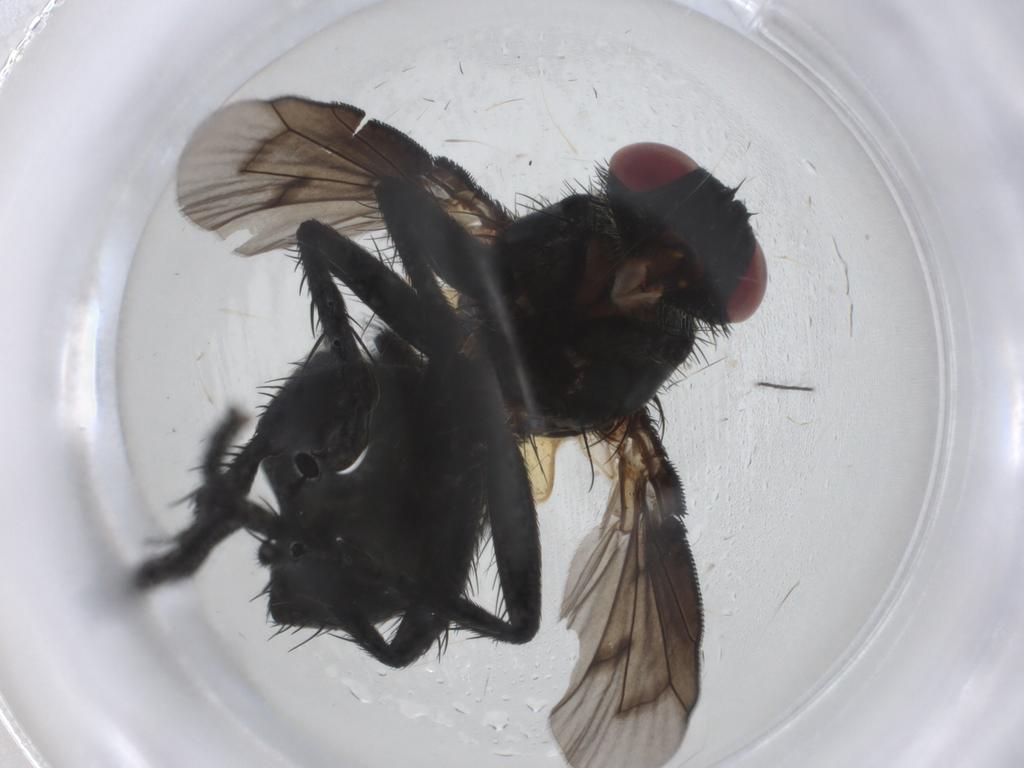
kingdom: Animalia
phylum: Arthropoda
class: Insecta
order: Diptera
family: Tachinidae
